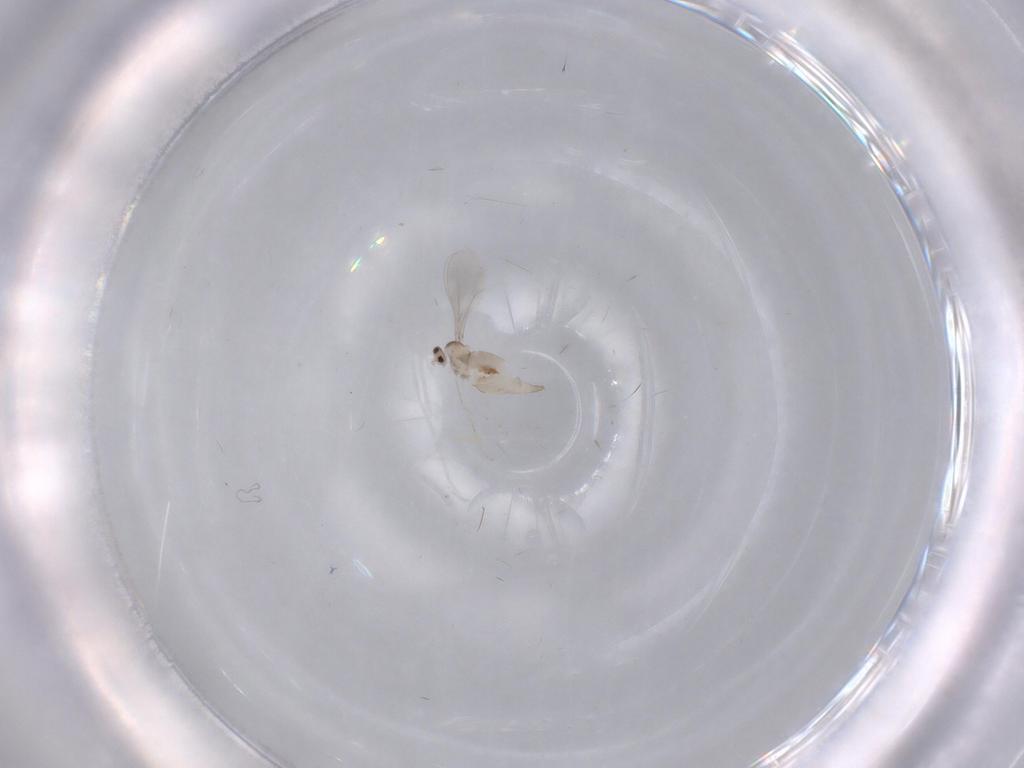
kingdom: Animalia
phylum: Arthropoda
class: Insecta
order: Diptera
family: Cecidomyiidae
